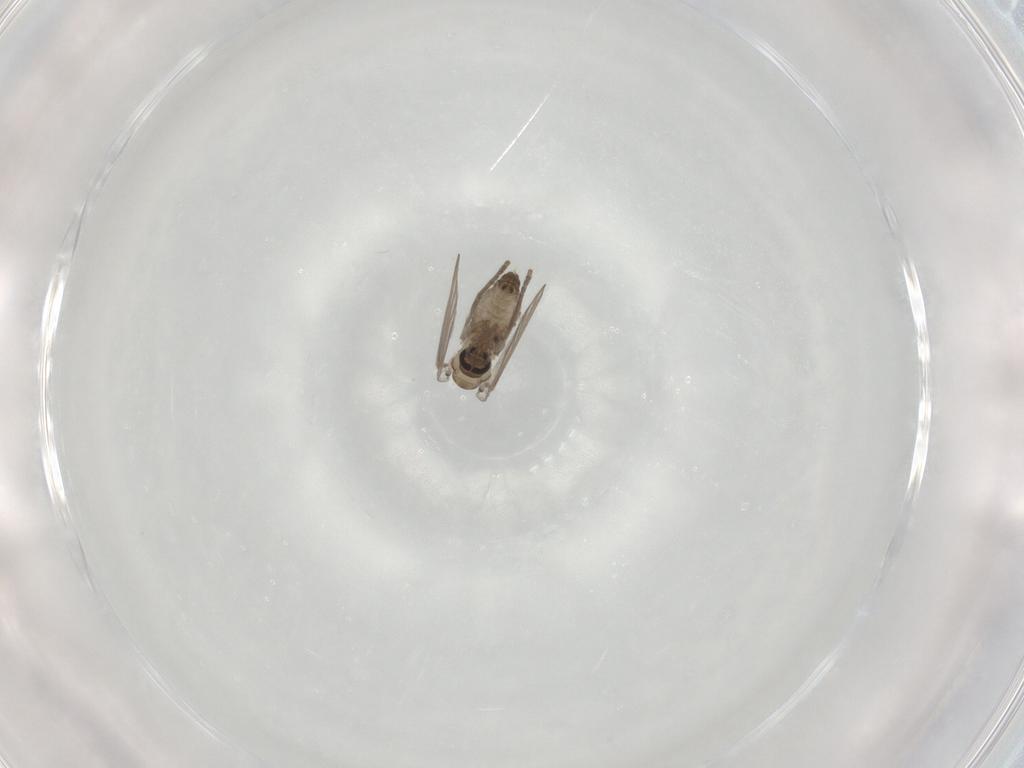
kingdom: Animalia
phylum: Arthropoda
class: Insecta
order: Diptera
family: Psychodidae
